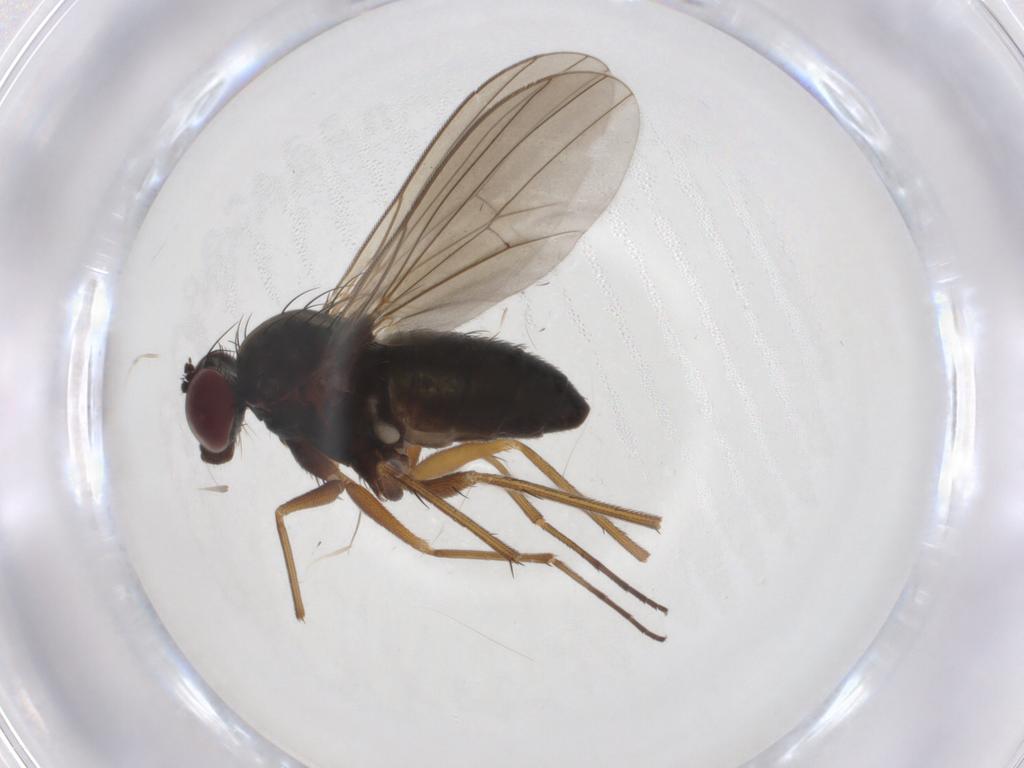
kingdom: Animalia
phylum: Arthropoda
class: Insecta
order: Diptera
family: Dolichopodidae
